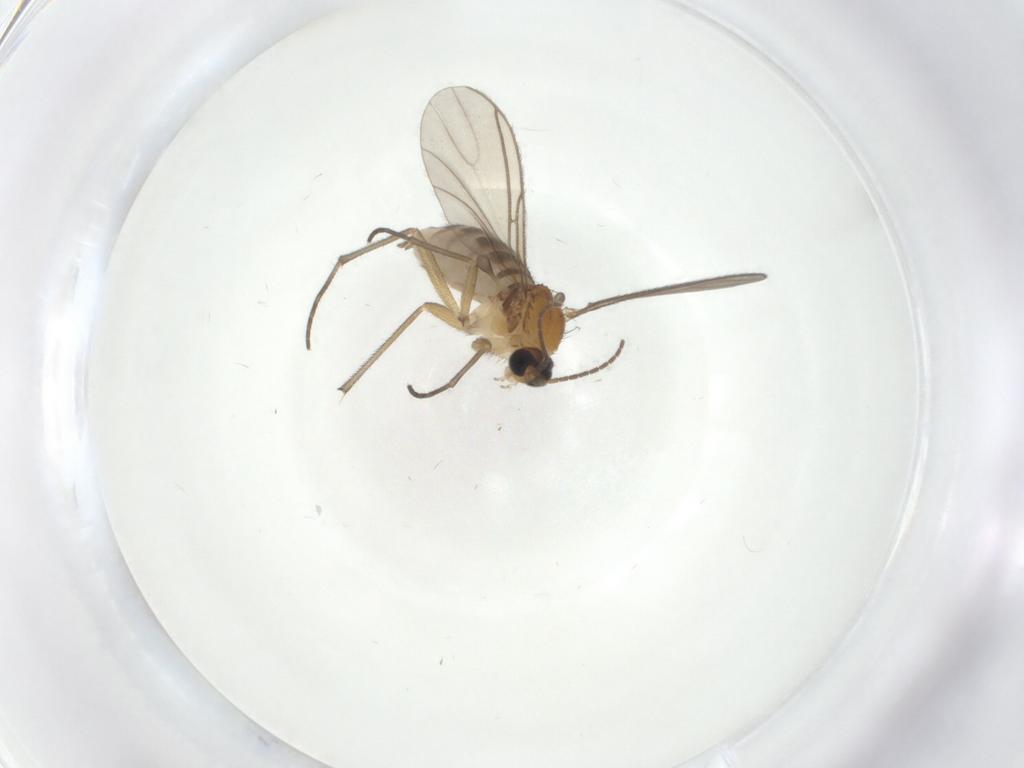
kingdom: Animalia
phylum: Arthropoda
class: Insecta
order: Diptera
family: Sciaridae
